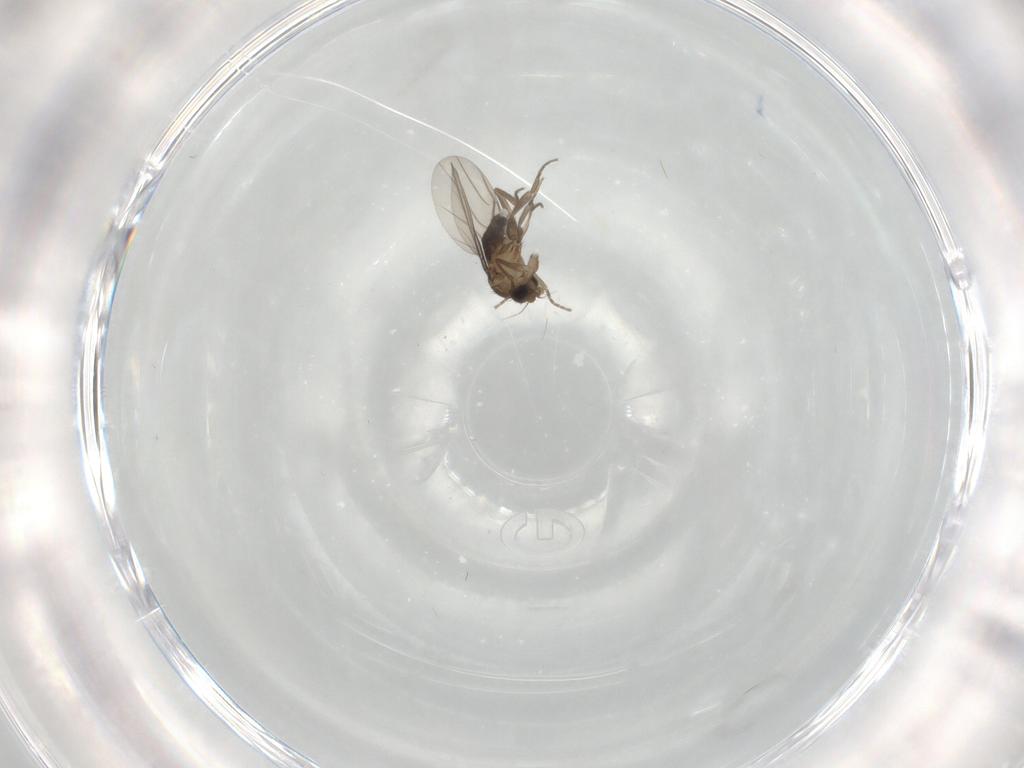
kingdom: Animalia
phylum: Arthropoda
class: Insecta
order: Diptera
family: Phoridae
